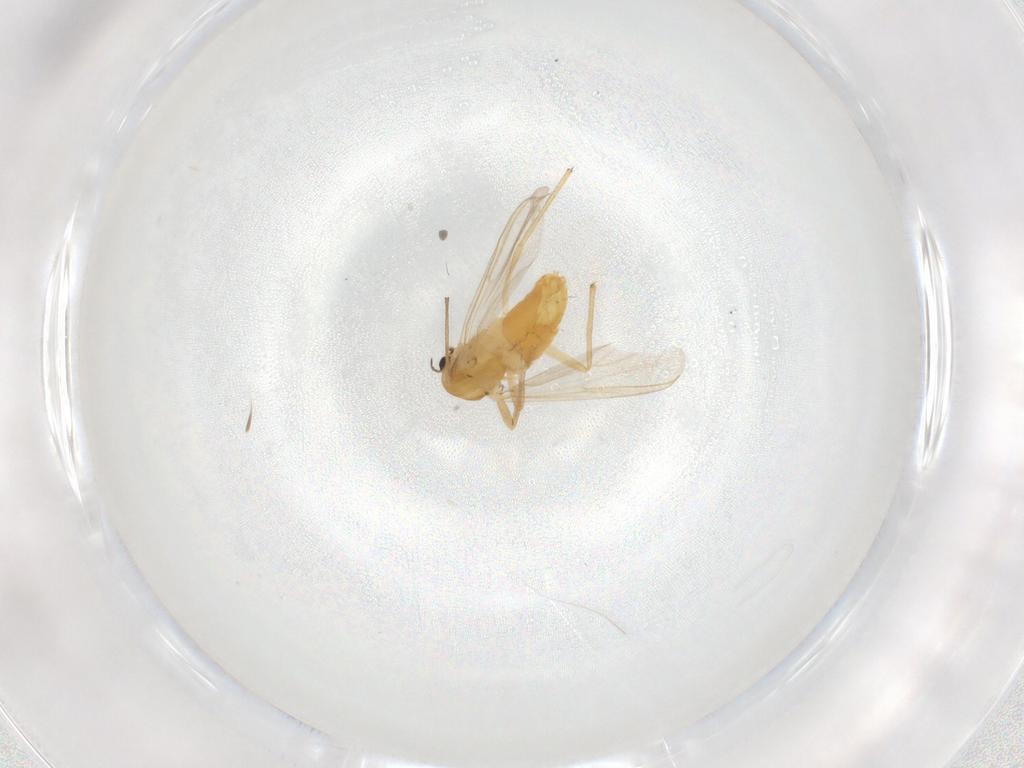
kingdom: Animalia
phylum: Arthropoda
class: Insecta
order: Diptera
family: Chironomidae
